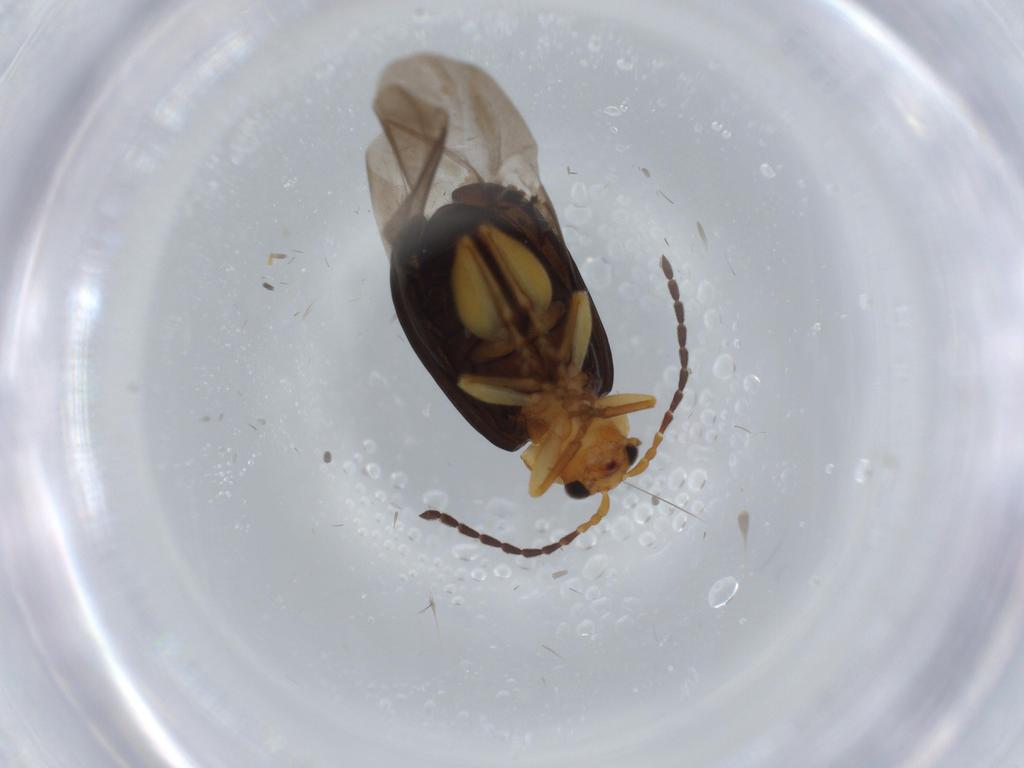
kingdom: Animalia
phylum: Arthropoda
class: Insecta
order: Coleoptera
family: Chrysomelidae
